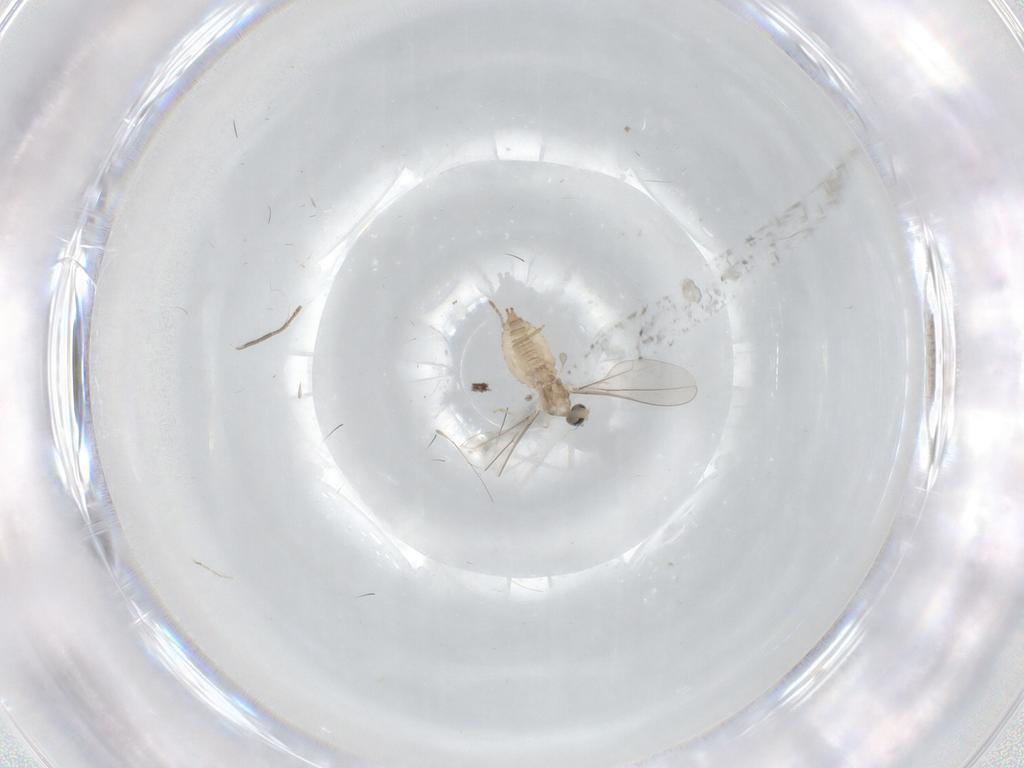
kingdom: Animalia
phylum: Arthropoda
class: Insecta
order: Diptera
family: Cecidomyiidae
